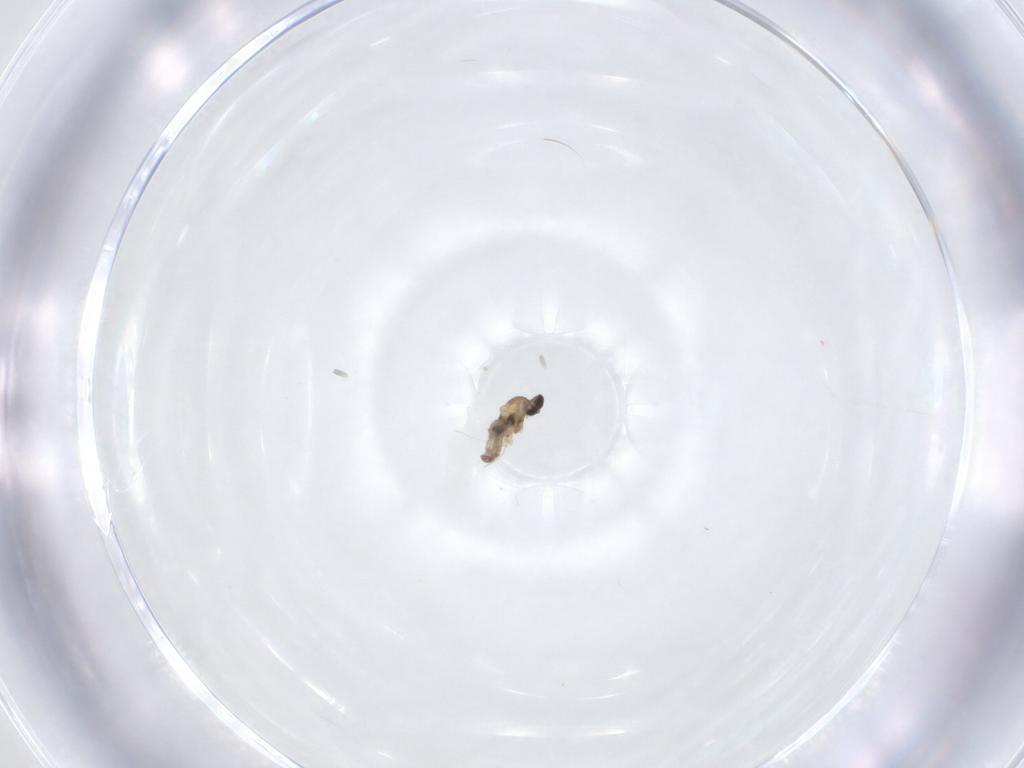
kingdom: Animalia
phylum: Arthropoda
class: Insecta
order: Diptera
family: Cecidomyiidae
